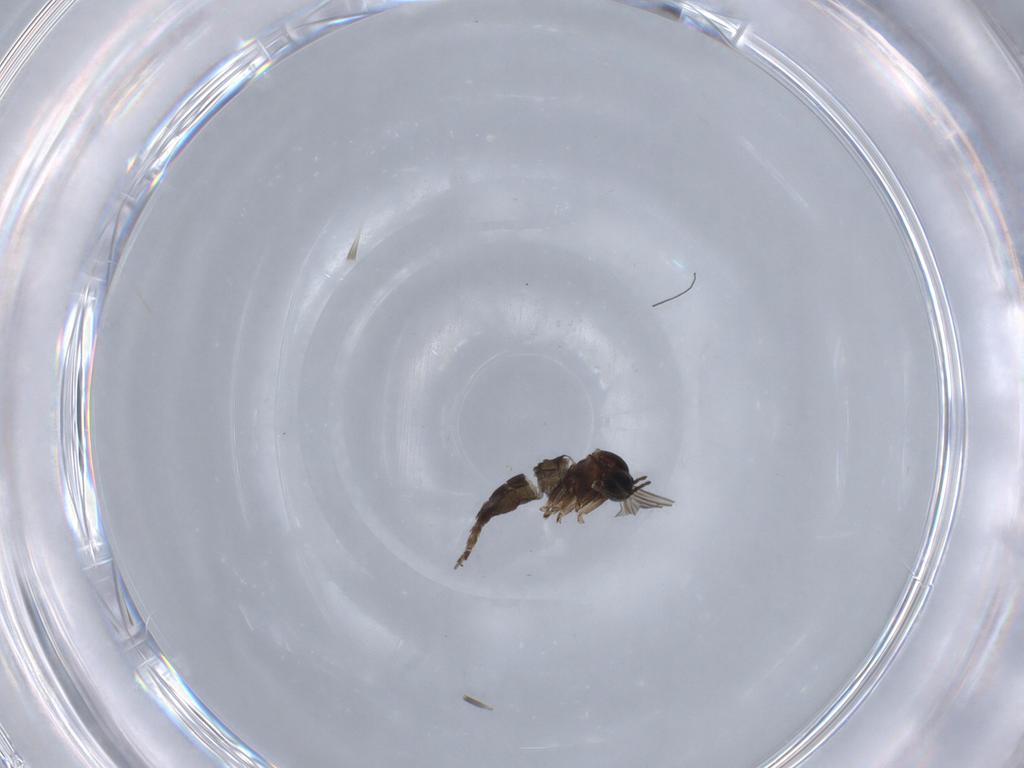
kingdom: Animalia
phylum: Arthropoda
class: Insecta
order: Diptera
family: Sciaridae
